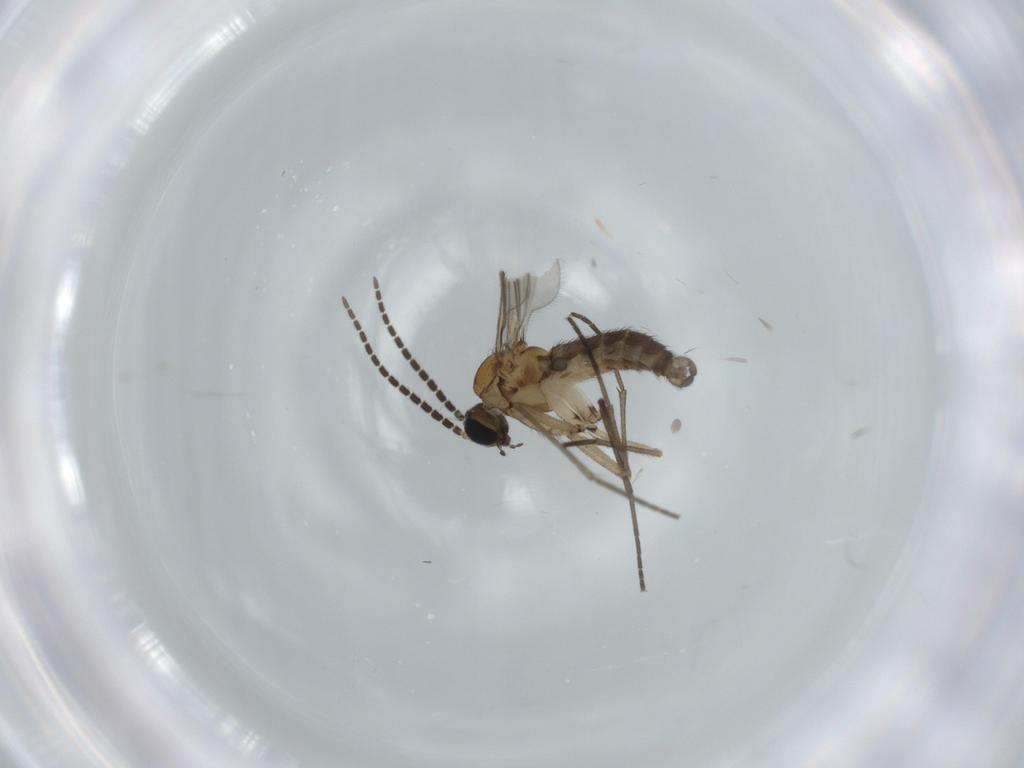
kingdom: Animalia
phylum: Arthropoda
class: Insecta
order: Diptera
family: Sciaridae
